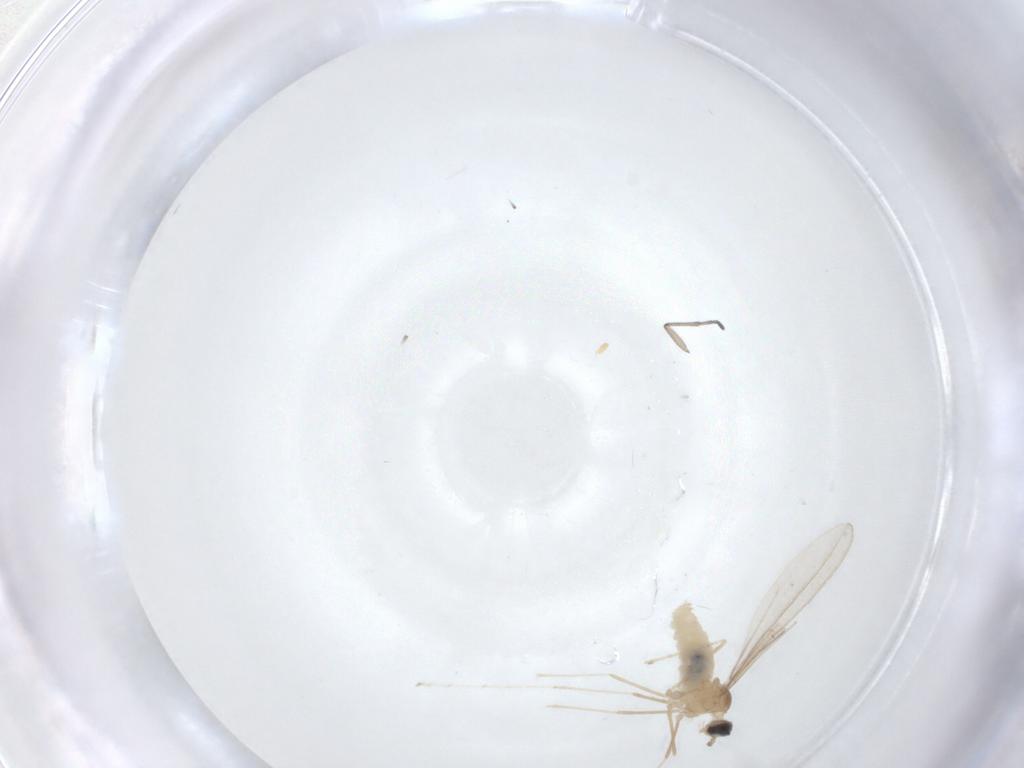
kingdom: Animalia
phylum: Arthropoda
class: Insecta
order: Diptera
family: Cecidomyiidae
